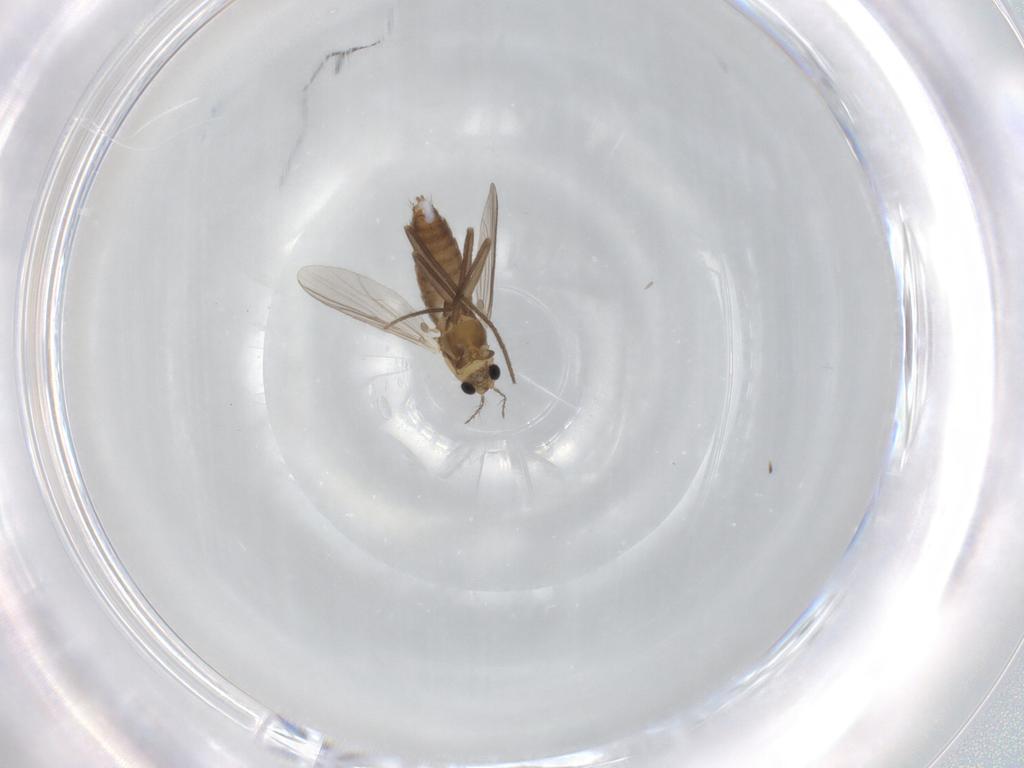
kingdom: Animalia
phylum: Arthropoda
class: Insecta
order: Diptera
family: Chironomidae
